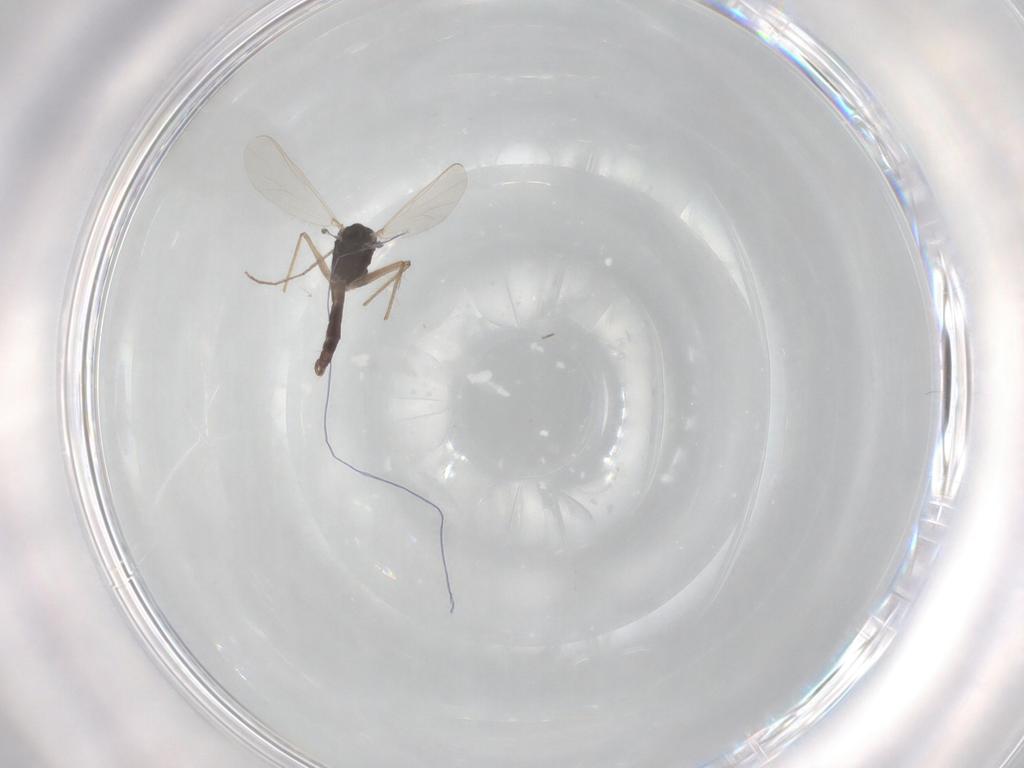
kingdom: Animalia
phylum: Arthropoda
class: Insecta
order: Diptera
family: Chironomidae
